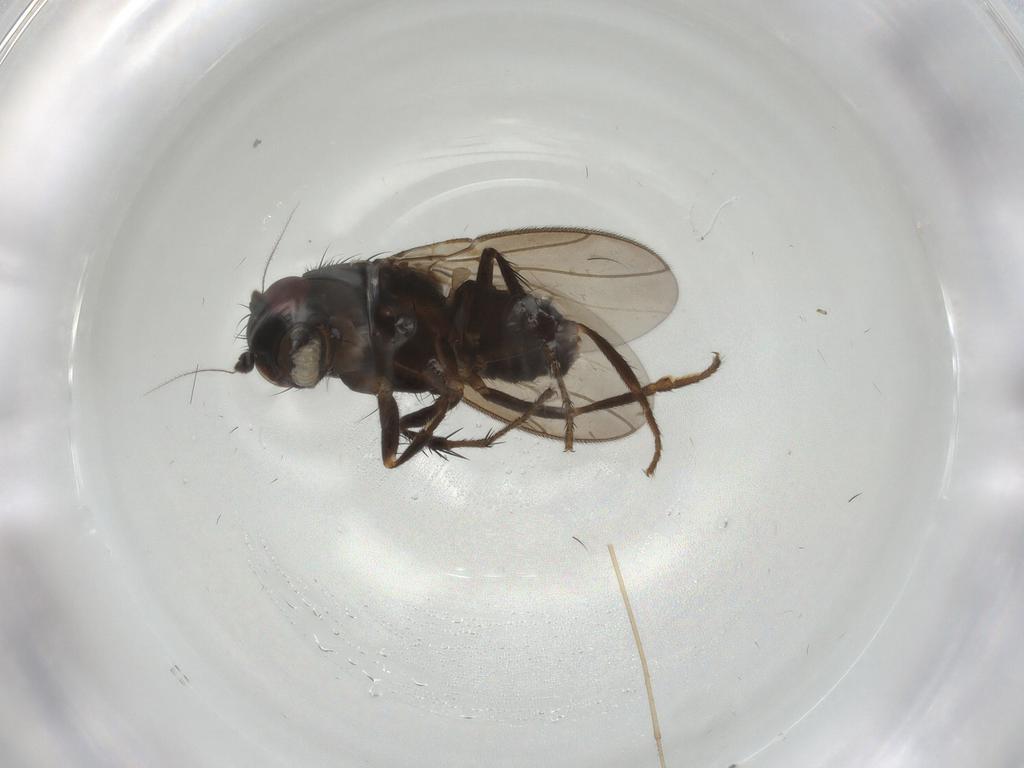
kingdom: Animalia
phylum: Arthropoda
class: Insecta
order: Diptera
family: Sphaeroceridae
